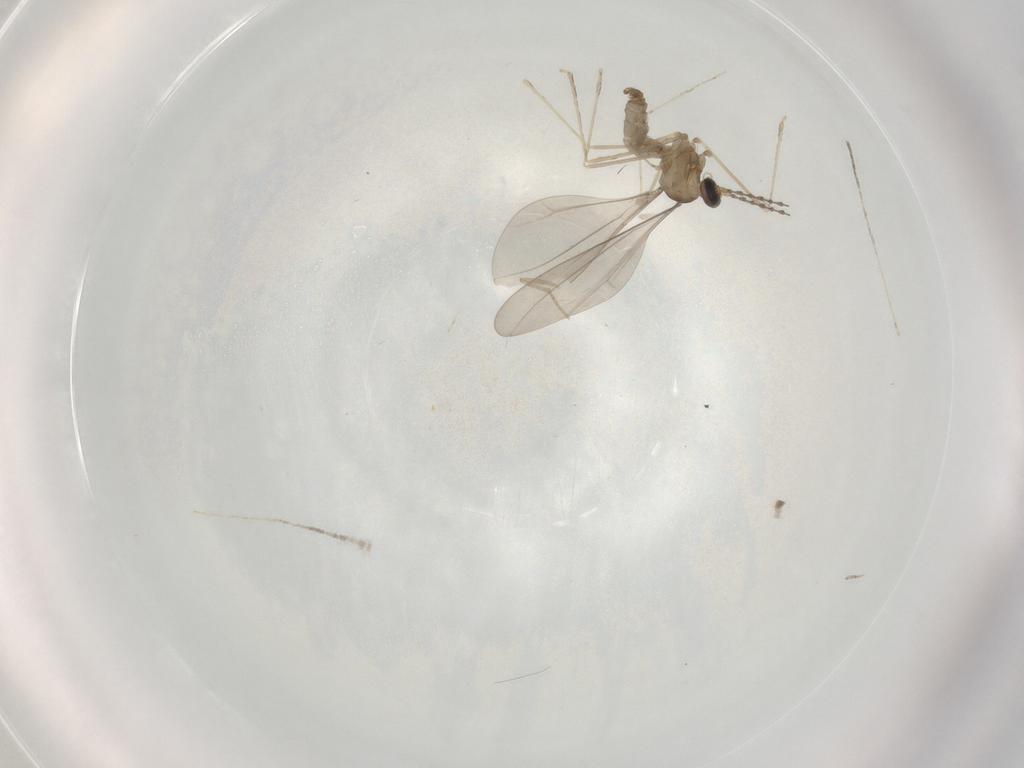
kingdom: Animalia
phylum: Arthropoda
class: Insecta
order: Diptera
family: Cecidomyiidae
